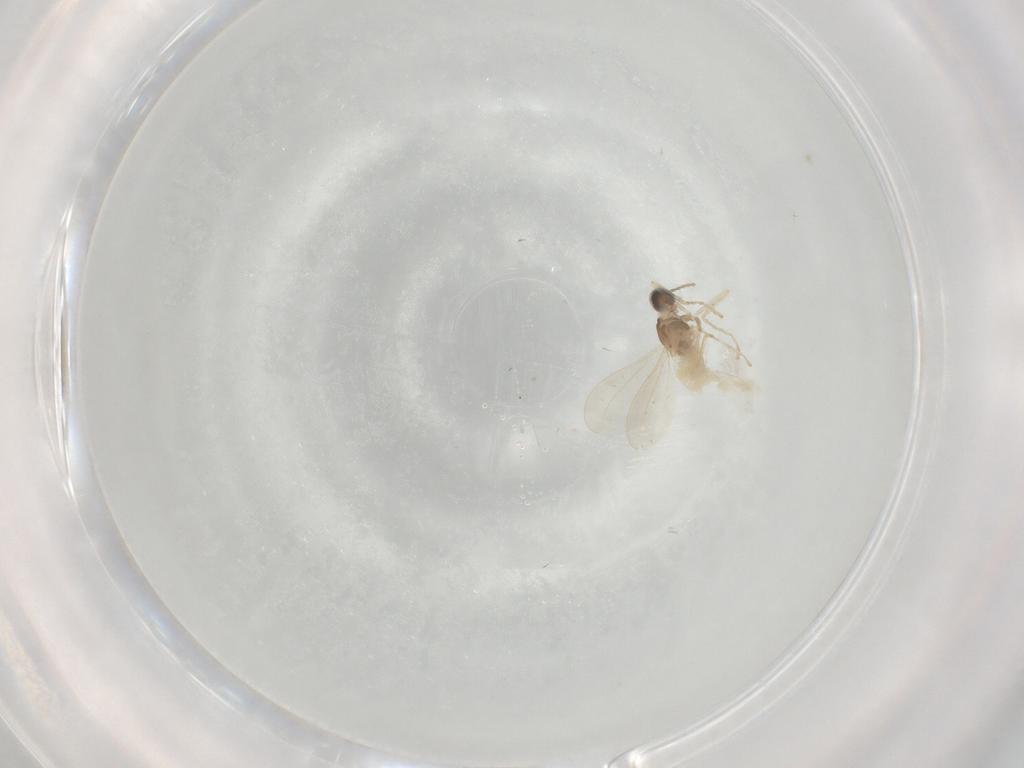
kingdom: Animalia
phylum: Arthropoda
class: Insecta
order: Diptera
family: Cecidomyiidae
